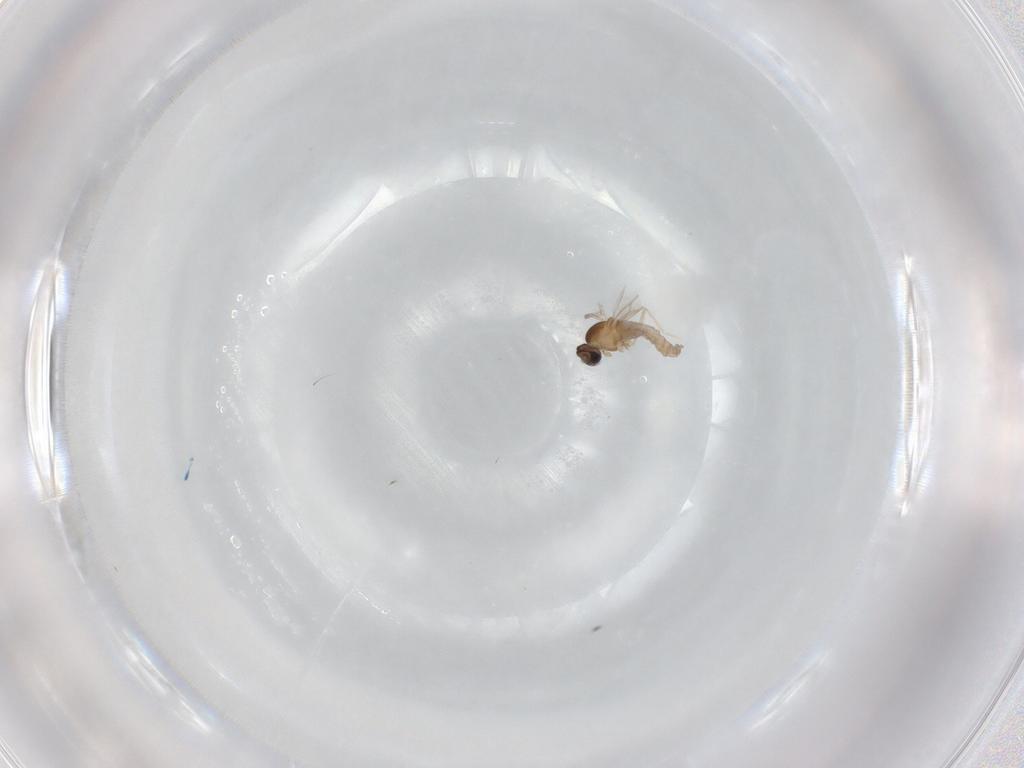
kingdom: Animalia
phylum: Arthropoda
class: Insecta
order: Diptera
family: Cecidomyiidae
